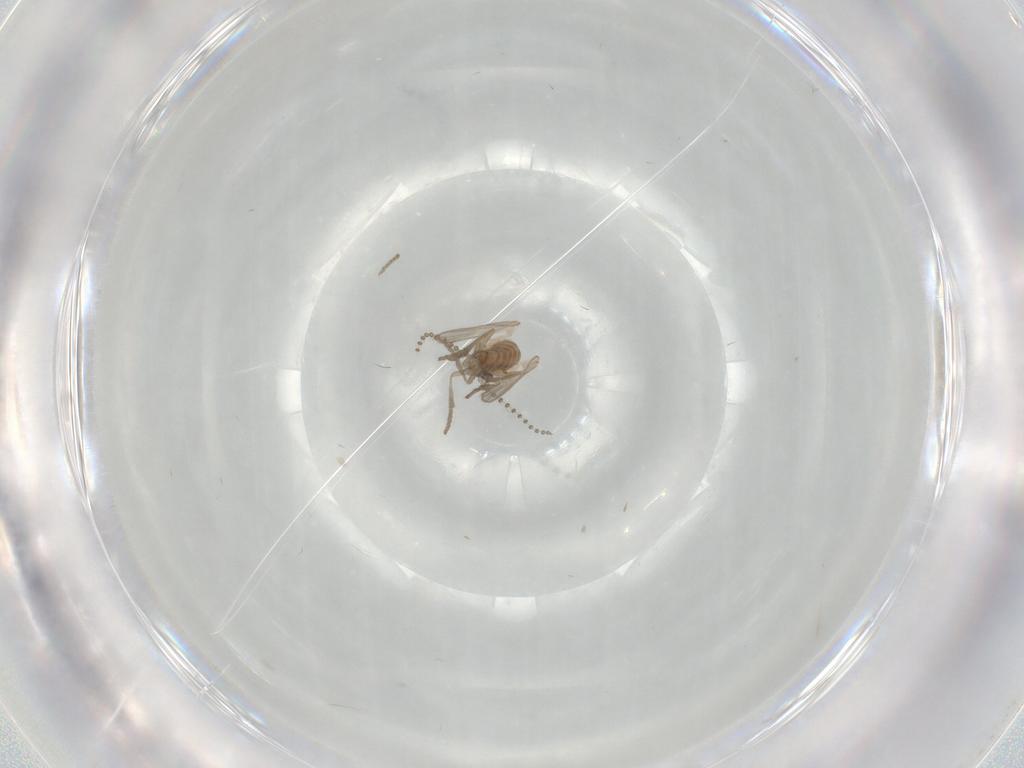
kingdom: Animalia
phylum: Arthropoda
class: Insecta
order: Diptera
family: Psychodidae
